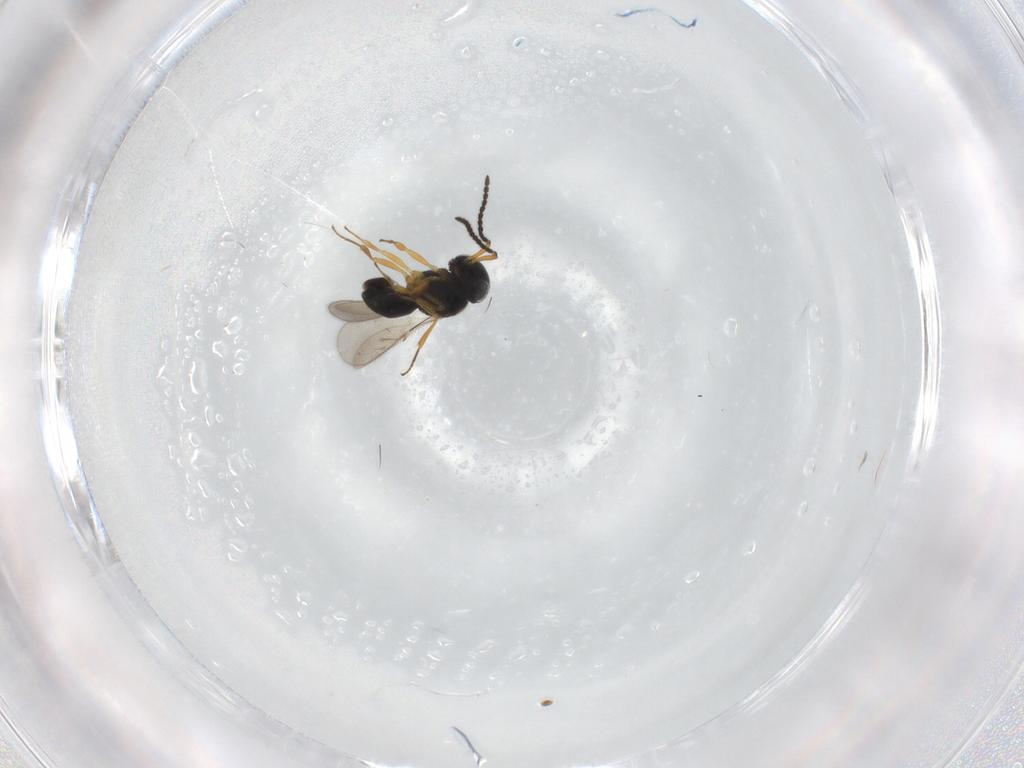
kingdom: Animalia
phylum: Arthropoda
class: Insecta
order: Hymenoptera
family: Scelionidae
